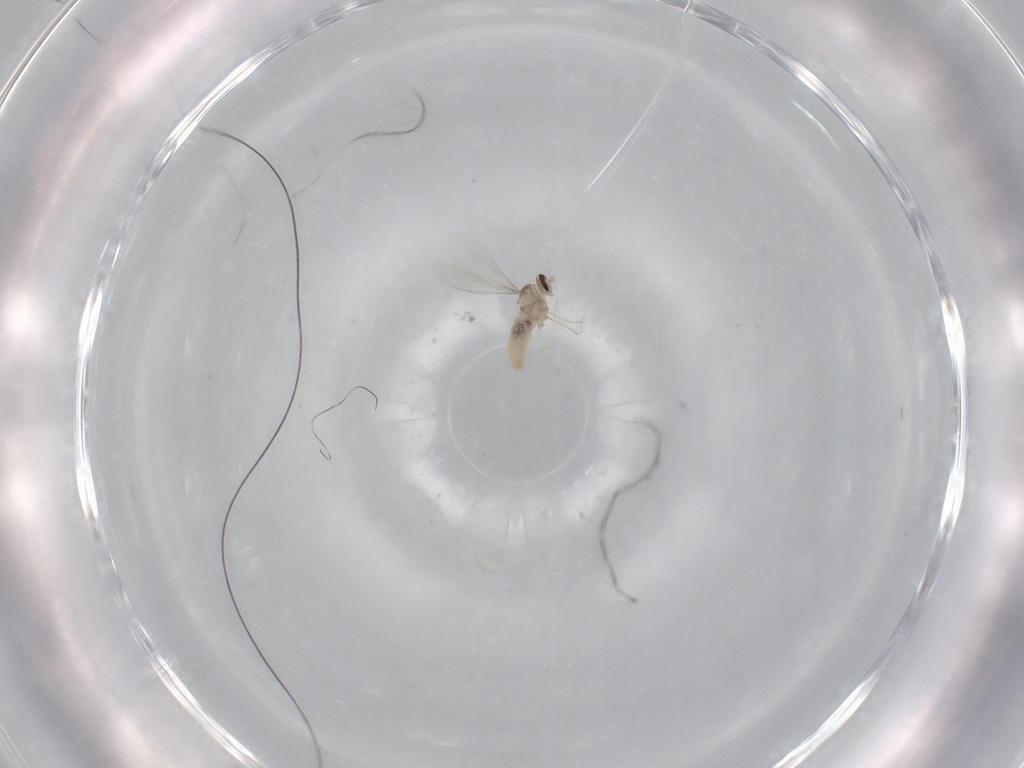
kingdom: Animalia
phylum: Arthropoda
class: Insecta
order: Diptera
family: Cecidomyiidae
